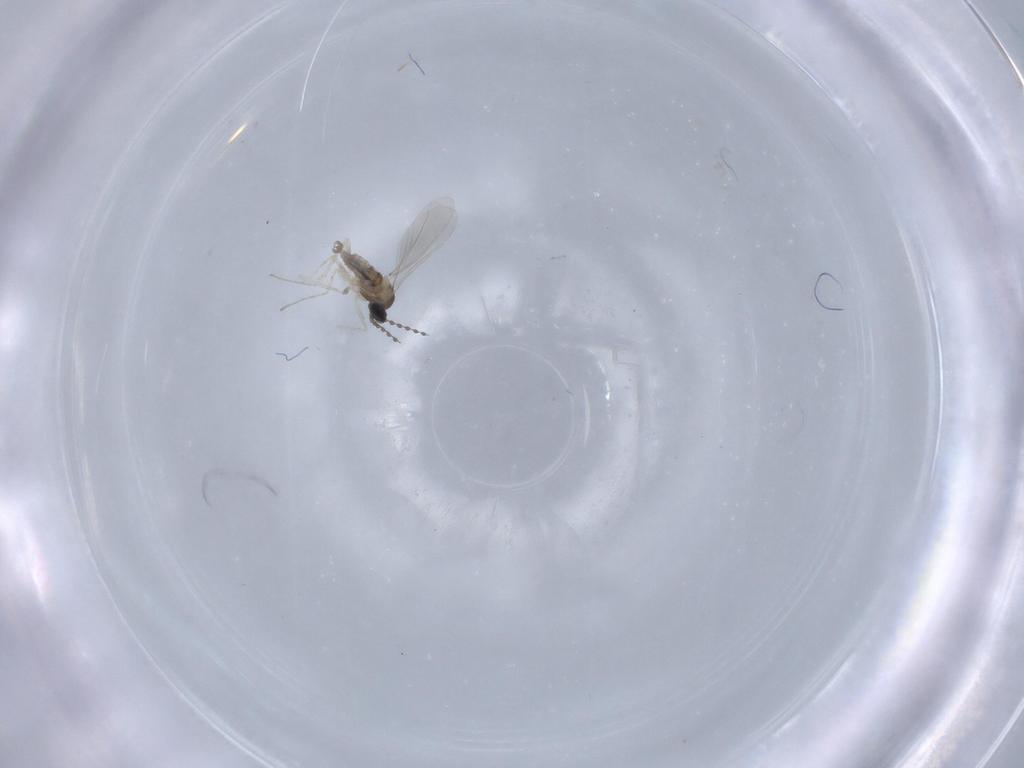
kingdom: Animalia
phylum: Arthropoda
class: Insecta
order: Diptera
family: Cecidomyiidae
